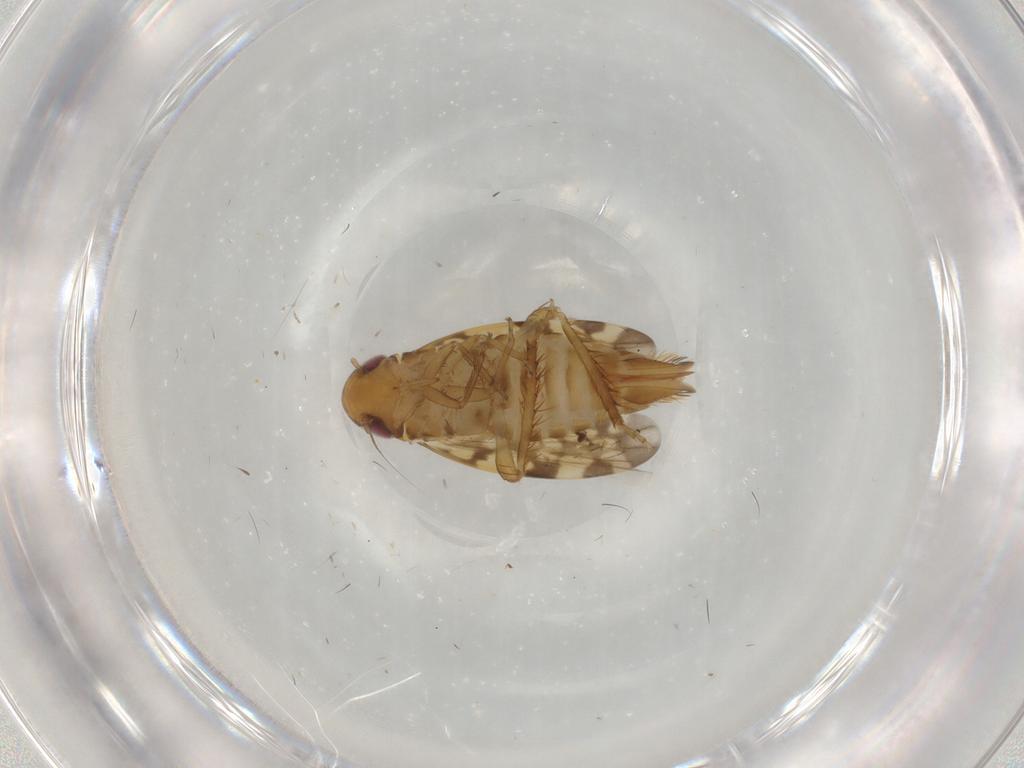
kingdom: Animalia
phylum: Arthropoda
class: Insecta
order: Hemiptera
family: Cicadellidae
